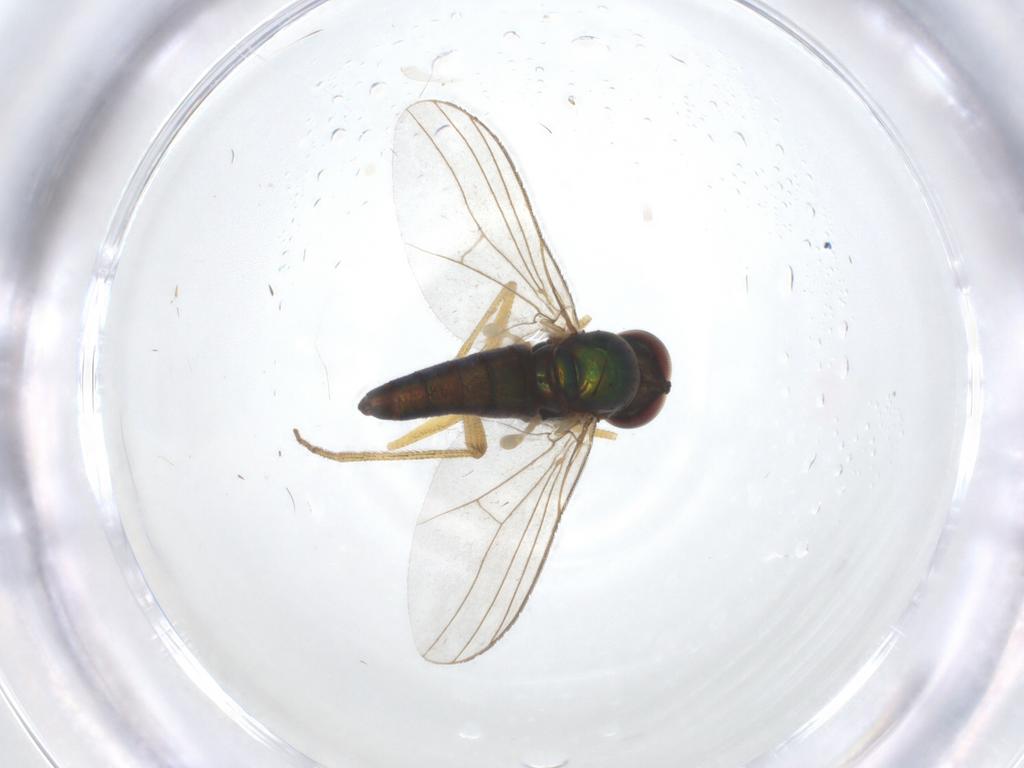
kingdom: Animalia
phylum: Arthropoda
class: Insecta
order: Diptera
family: Dolichopodidae
